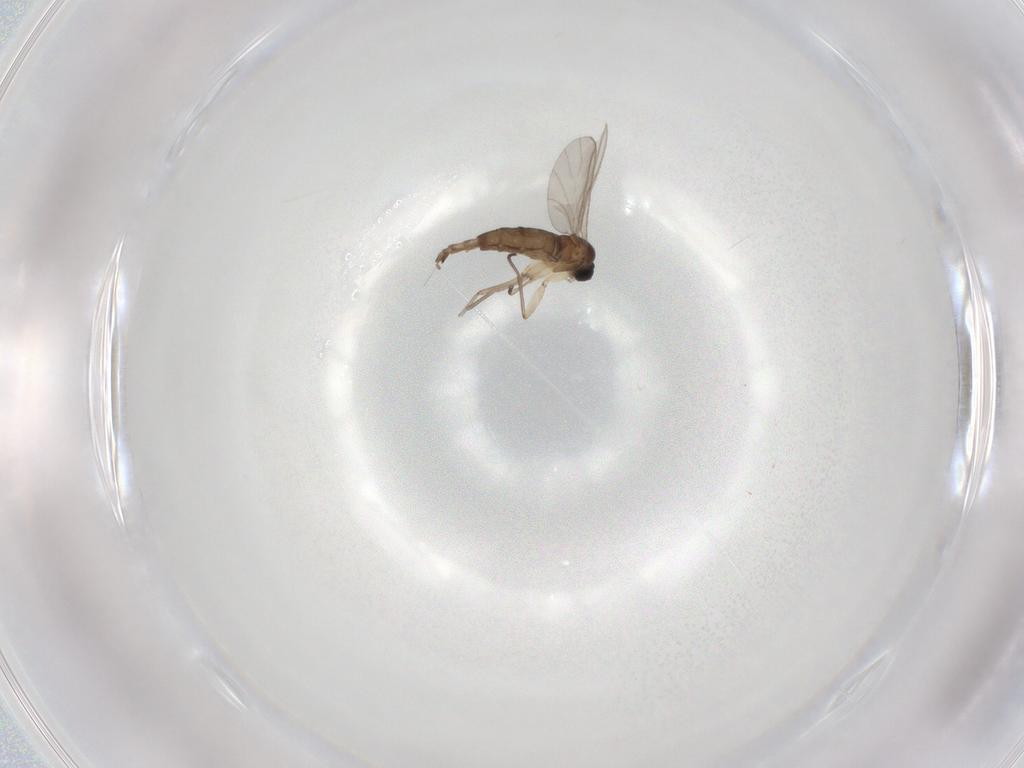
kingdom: Animalia
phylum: Arthropoda
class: Insecta
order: Diptera
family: Sciaridae
